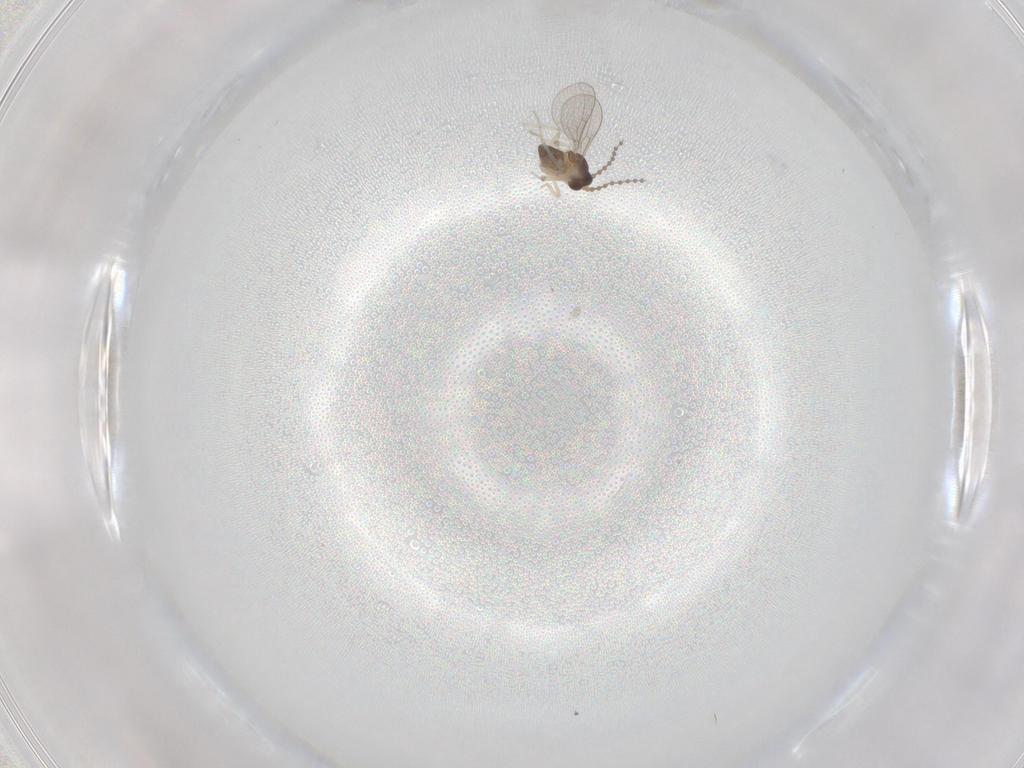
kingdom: Animalia
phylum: Arthropoda
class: Insecta
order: Diptera
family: Cecidomyiidae
